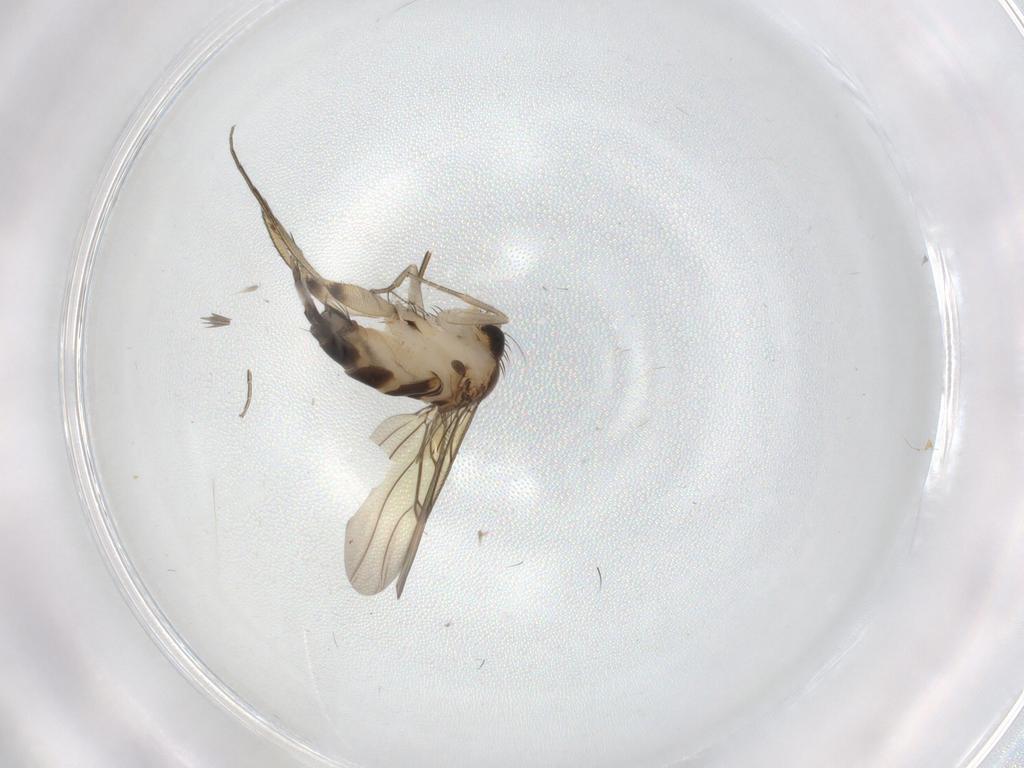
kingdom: Animalia
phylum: Arthropoda
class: Insecta
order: Diptera
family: Phoridae
